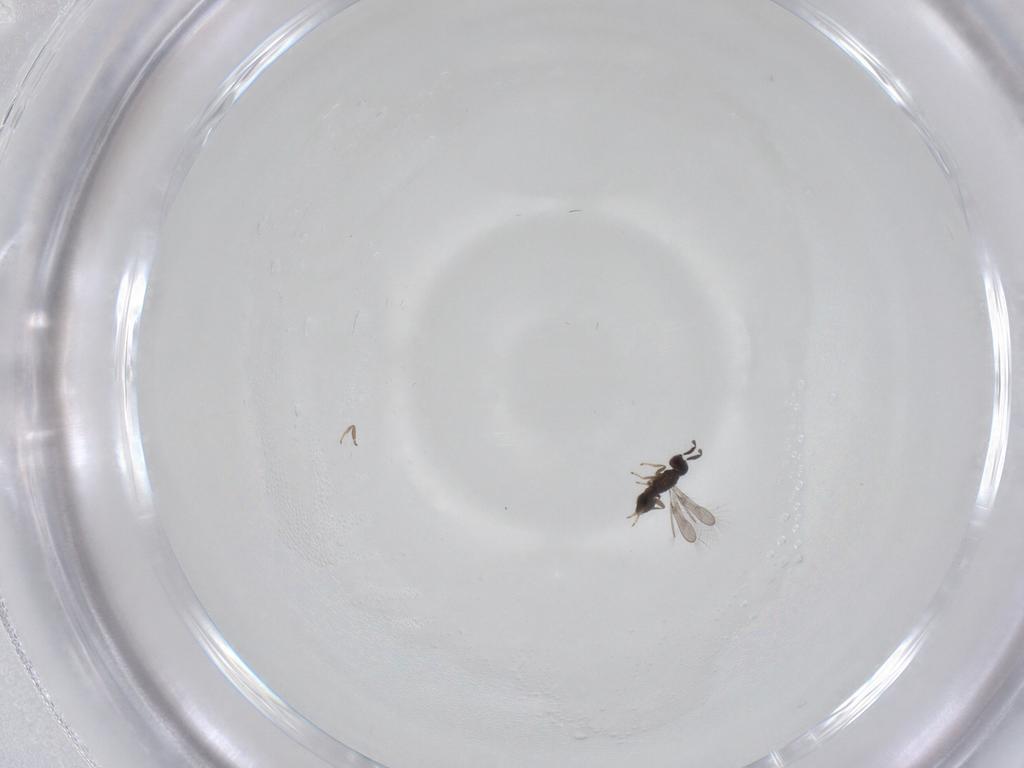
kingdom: Animalia
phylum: Arthropoda
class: Insecta
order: Hymenoptera
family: Mymaridae
